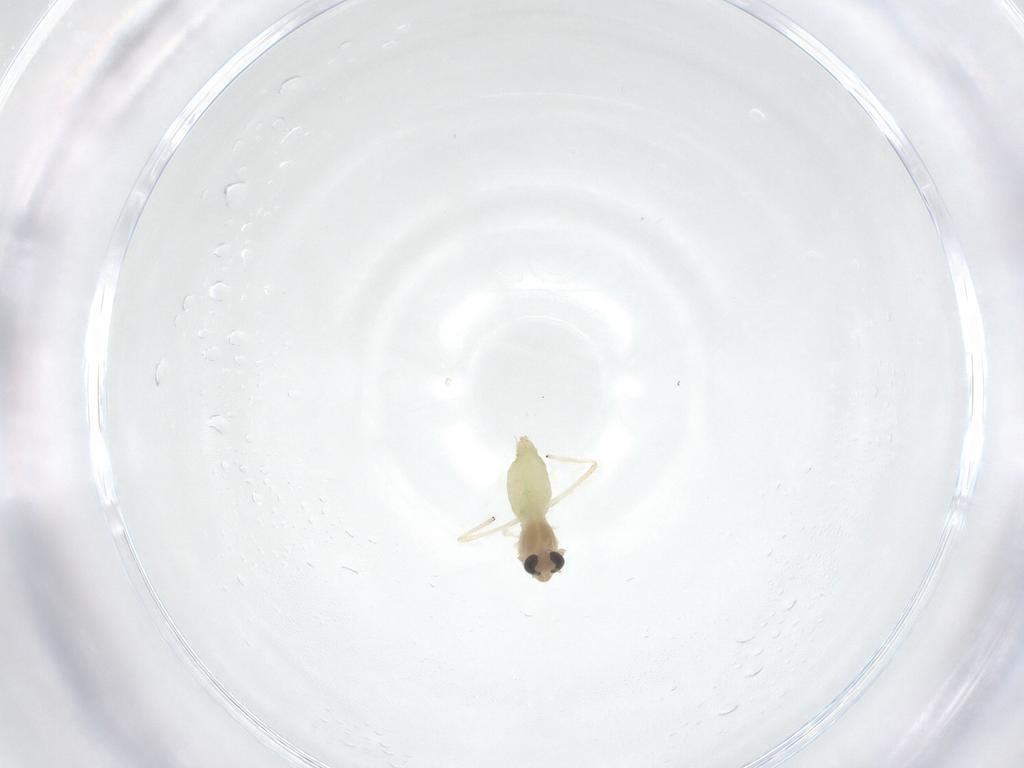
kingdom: Animalia
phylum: Arthropoda
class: Insecta
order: Diptera
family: Chironomidae
